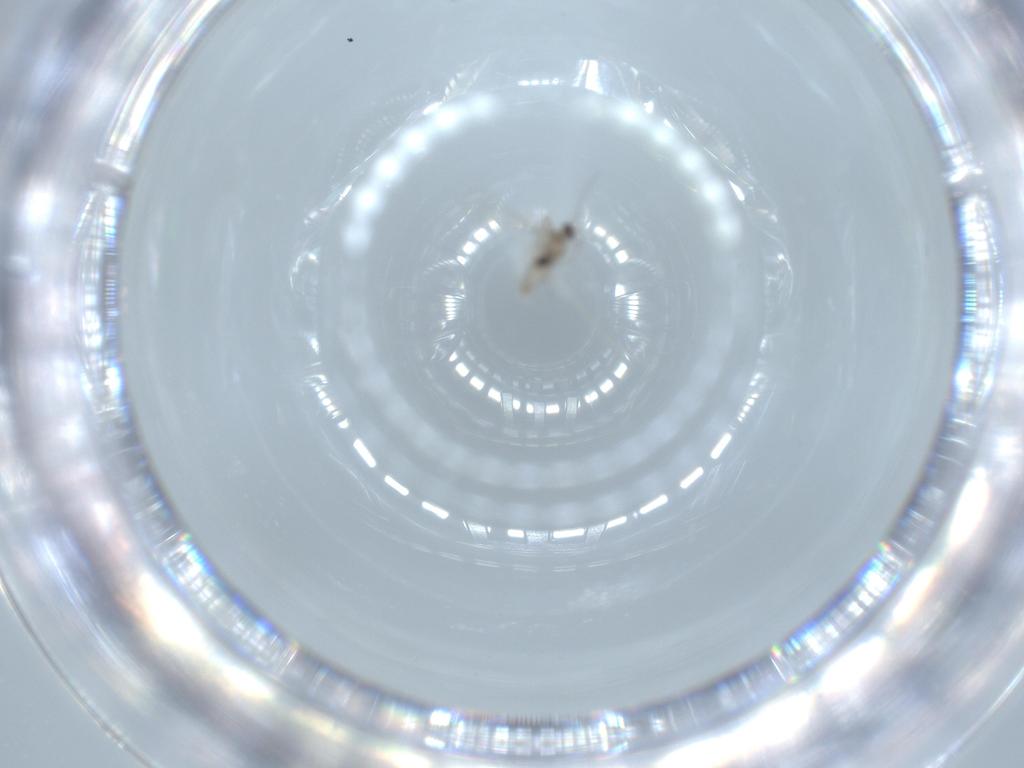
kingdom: Animalia
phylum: Arthropoda
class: Insecta
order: Diptera
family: Cecidomyiidae
